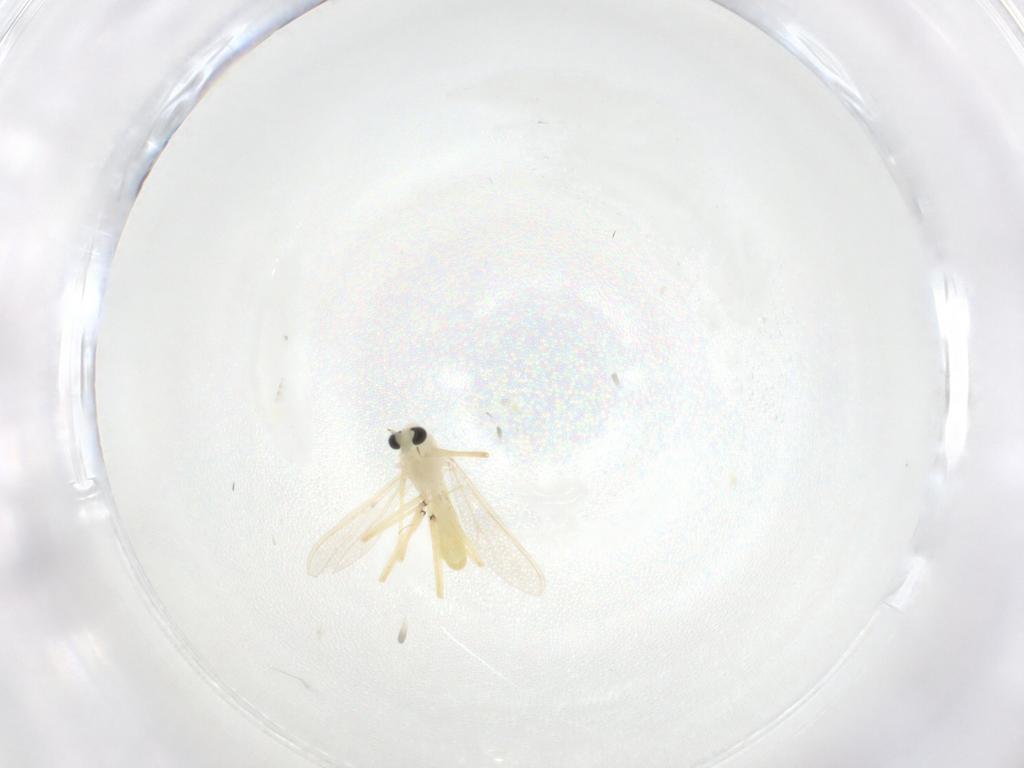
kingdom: Animalia
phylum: Arthropoda
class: Insecta
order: Diptera
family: Chironomidae
